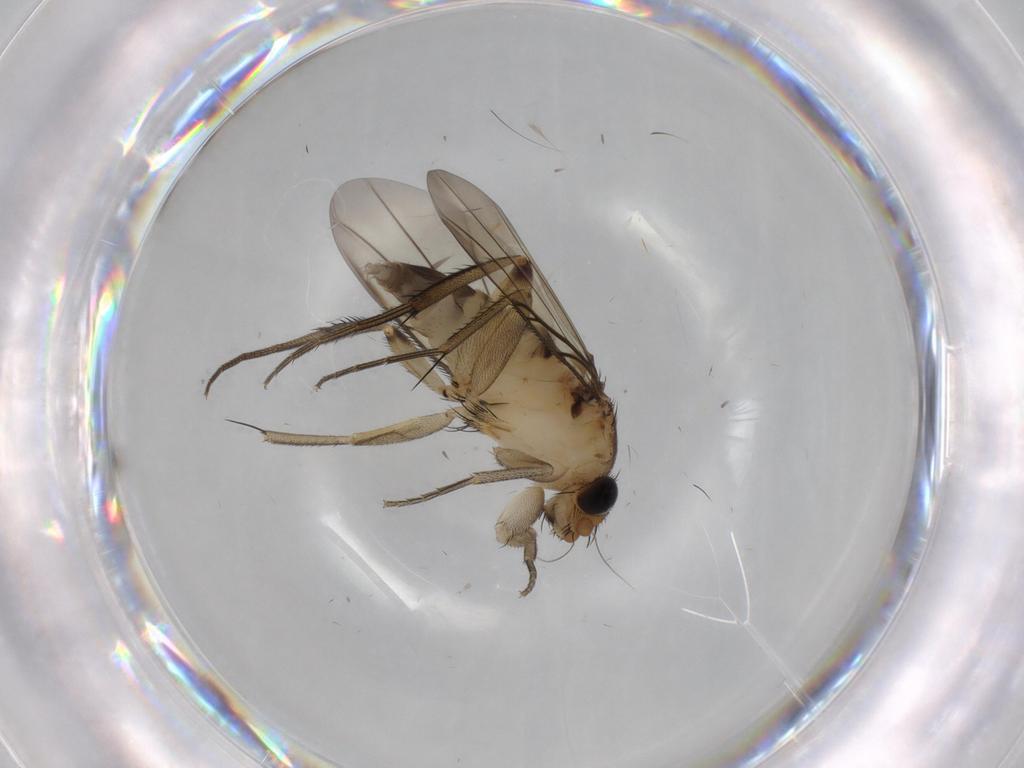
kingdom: Animalia
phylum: Arthropoda
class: Insecta
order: Diptera
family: Phoridae
